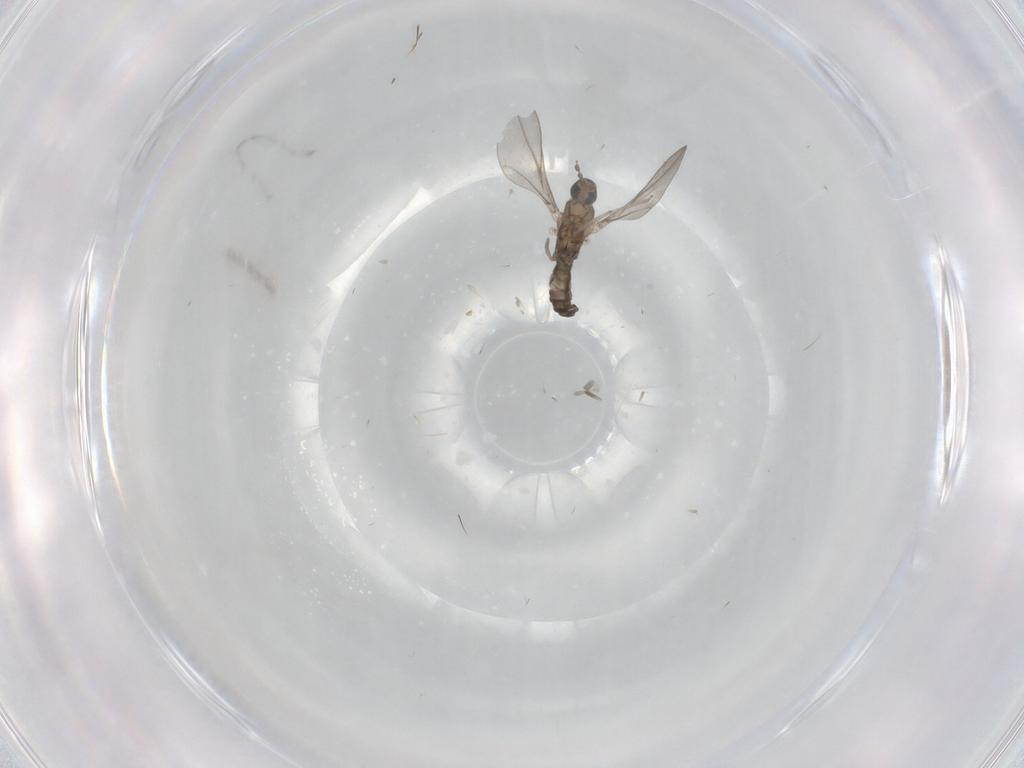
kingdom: Animalia
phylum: Arthropoda
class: Insecta
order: Diptera
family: Cecidomyiidae
